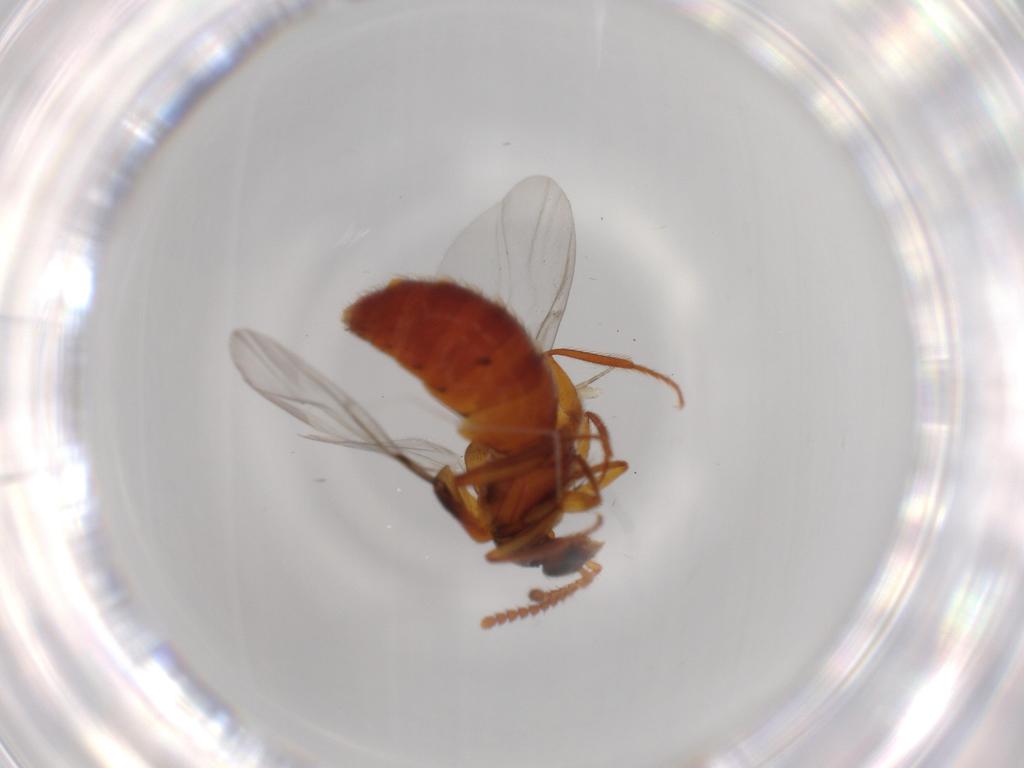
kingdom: Animalia
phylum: Arthropoda
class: Insecta
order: Coleoptera
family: Staphylinidae
